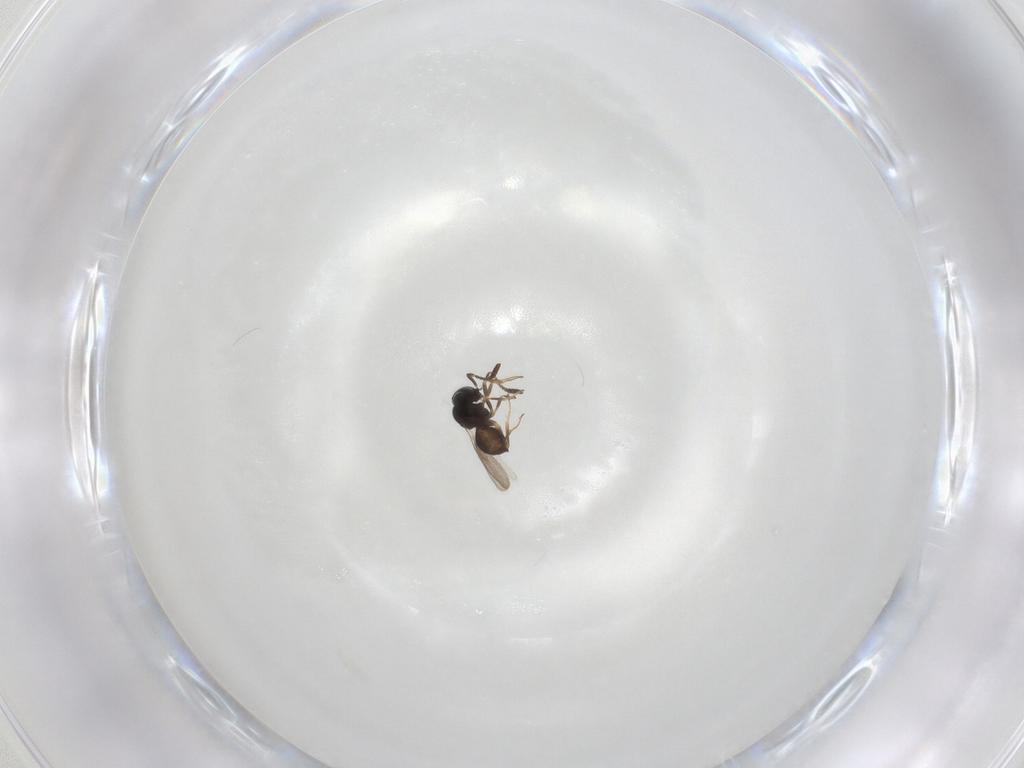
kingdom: Animalia
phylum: Arthropoda
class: Insecta
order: Hymenoptera
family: Scelionidae
